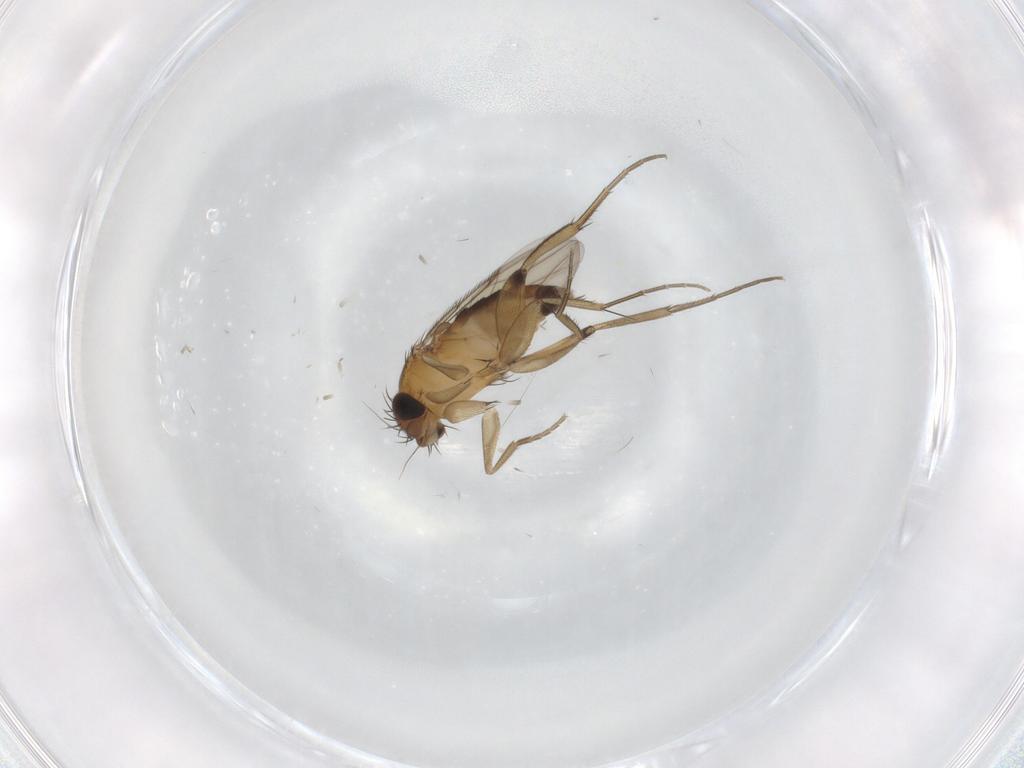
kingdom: Animalia
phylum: Arthropoda
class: Insecta
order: Diptera
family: Phoridae
